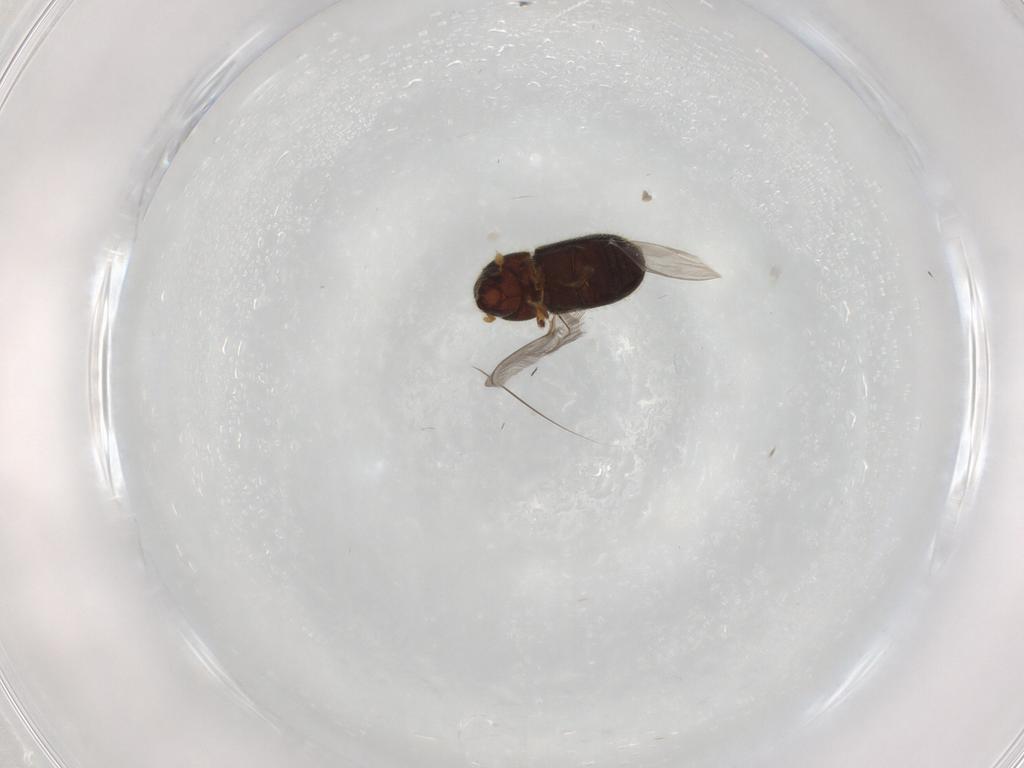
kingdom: Animalia
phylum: Arthropoda
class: Insecta
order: Coleoptera
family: Curculionidae
